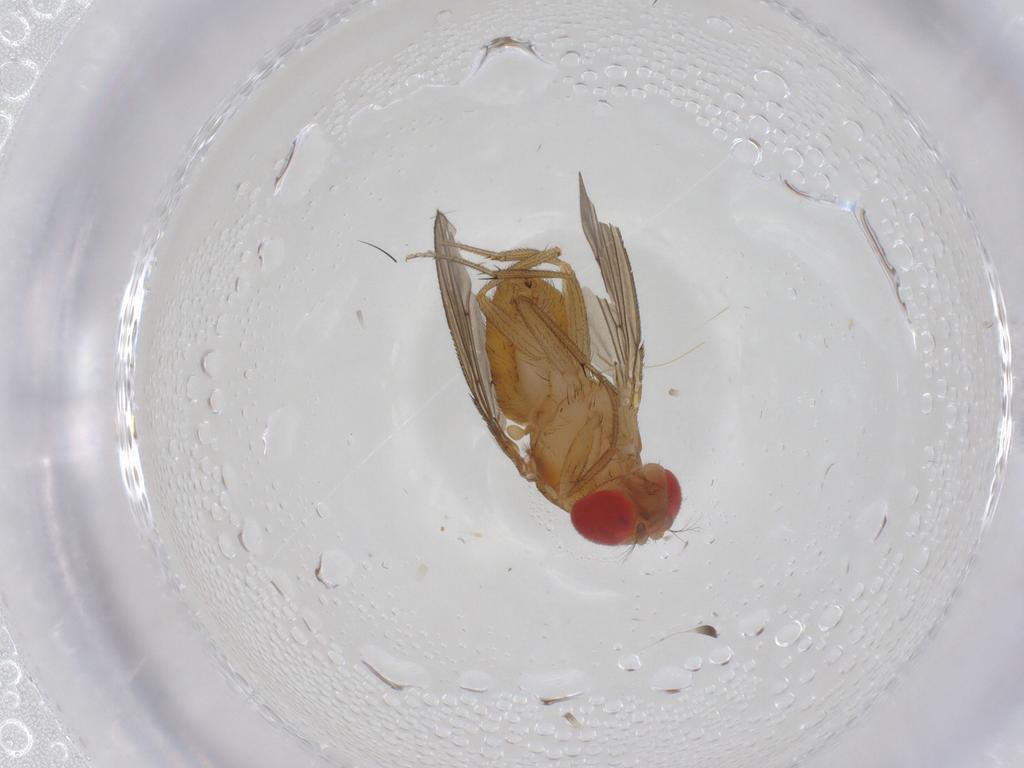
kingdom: Animalia
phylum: Arthropoda
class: Insecta
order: Diptera
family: Drosophilidae
